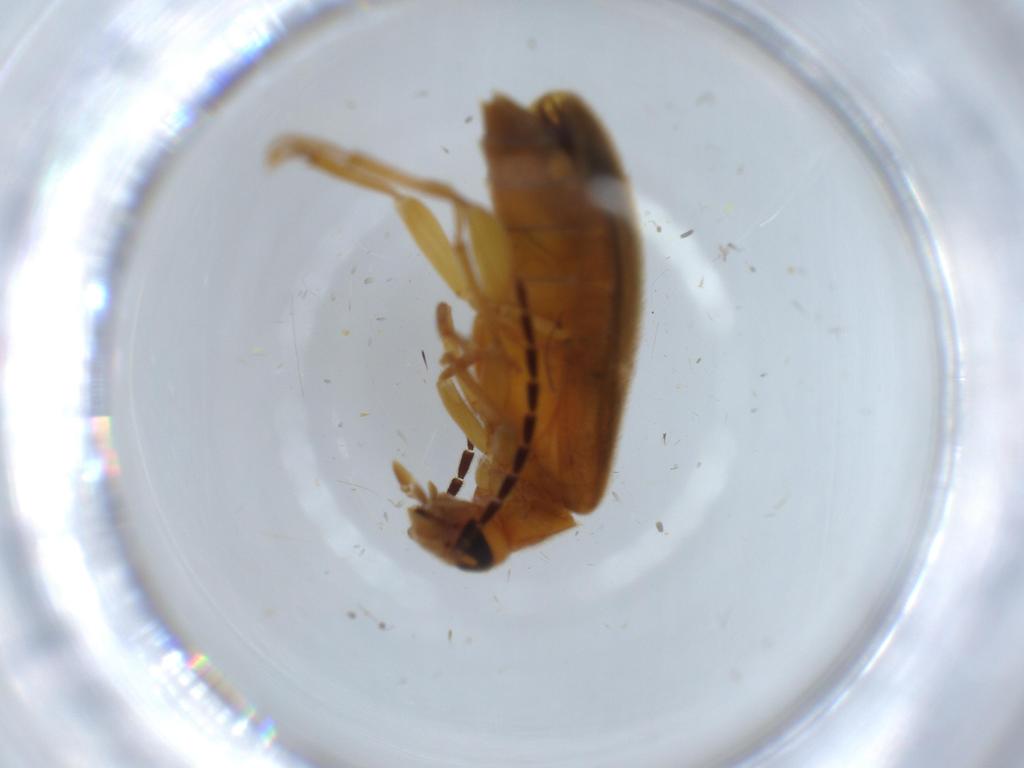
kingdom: Animalia
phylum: Arthropoda
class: Insecta
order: Coleoptera
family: Scraptiidae
